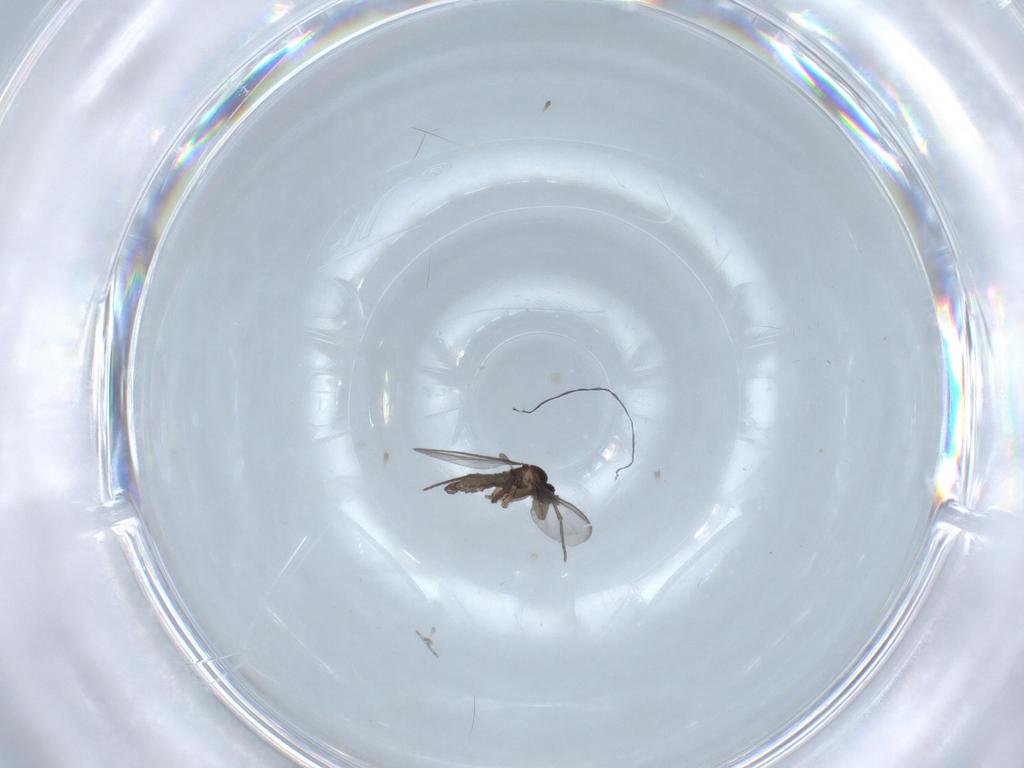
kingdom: Animalia
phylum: Arthropoda
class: Insecta
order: Diptera
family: Sciaridae
